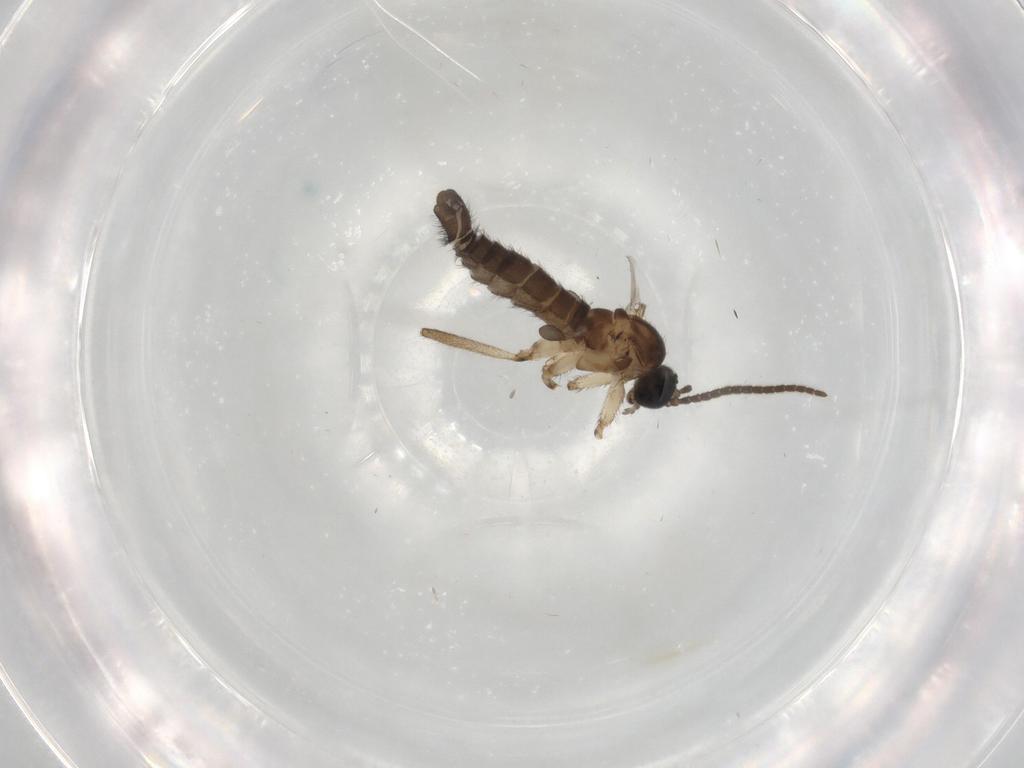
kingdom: Animalia
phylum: Arthropoda
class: Insecta
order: Diptera
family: Sciaridae
